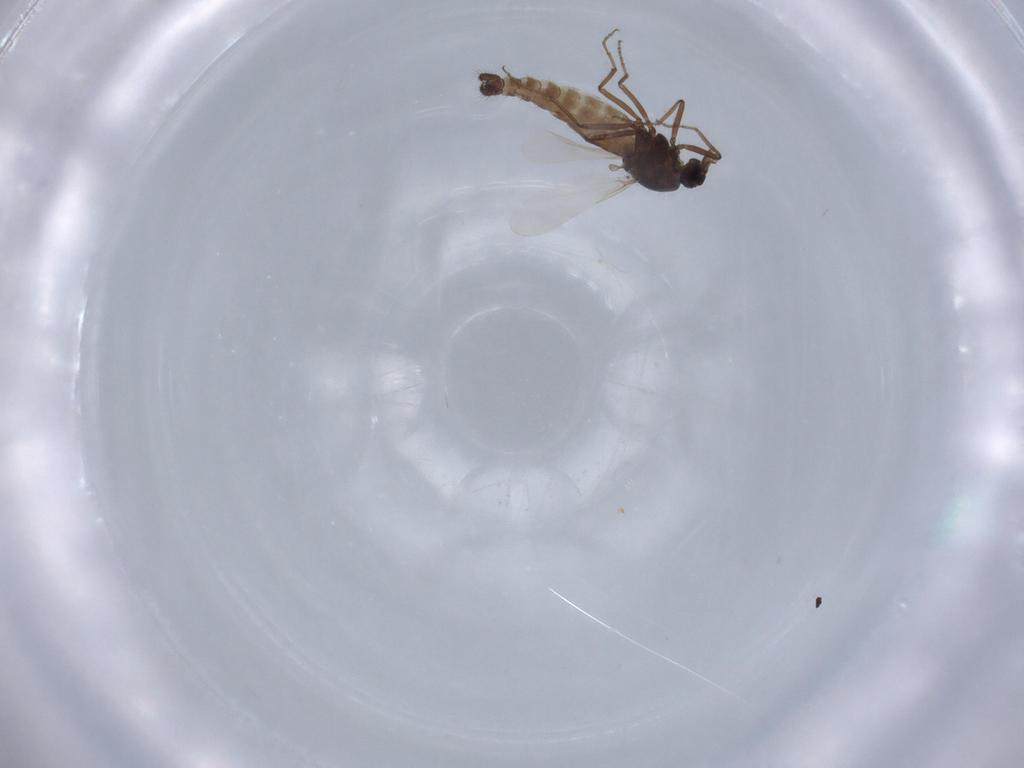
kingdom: Animalia
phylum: Arthropoda
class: Insecta
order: Diptera
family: Ceratopogonidae
